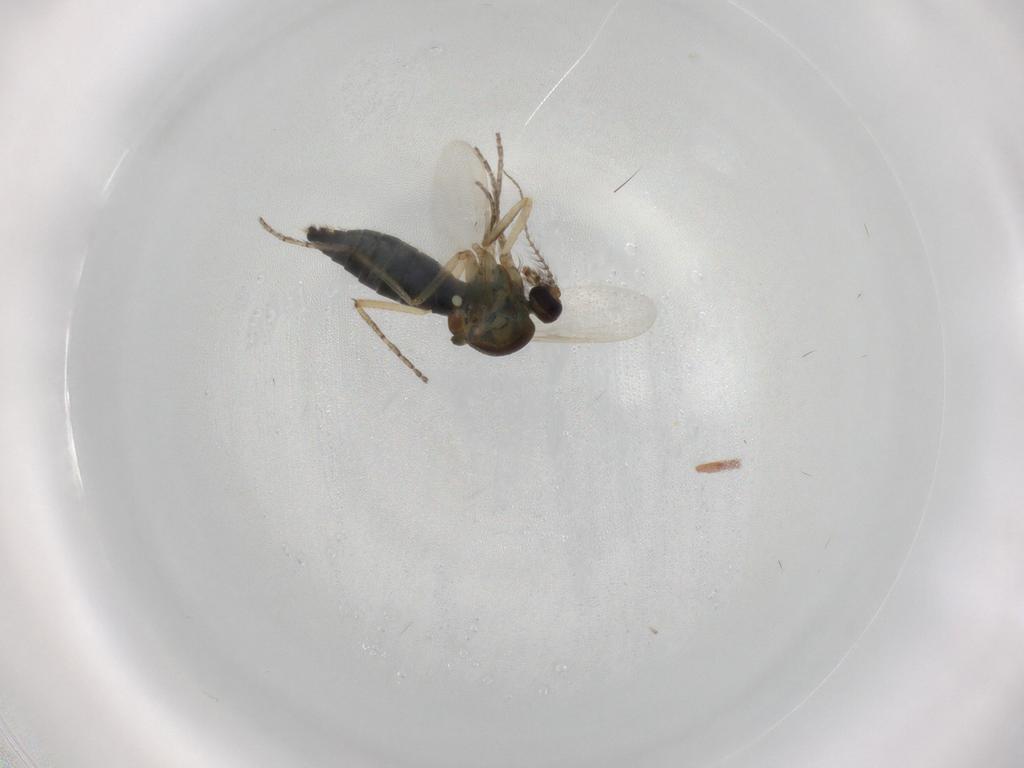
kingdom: Animalia
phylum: Arthropoda
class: Insecta
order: Diptera
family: Ceratopogonidae
